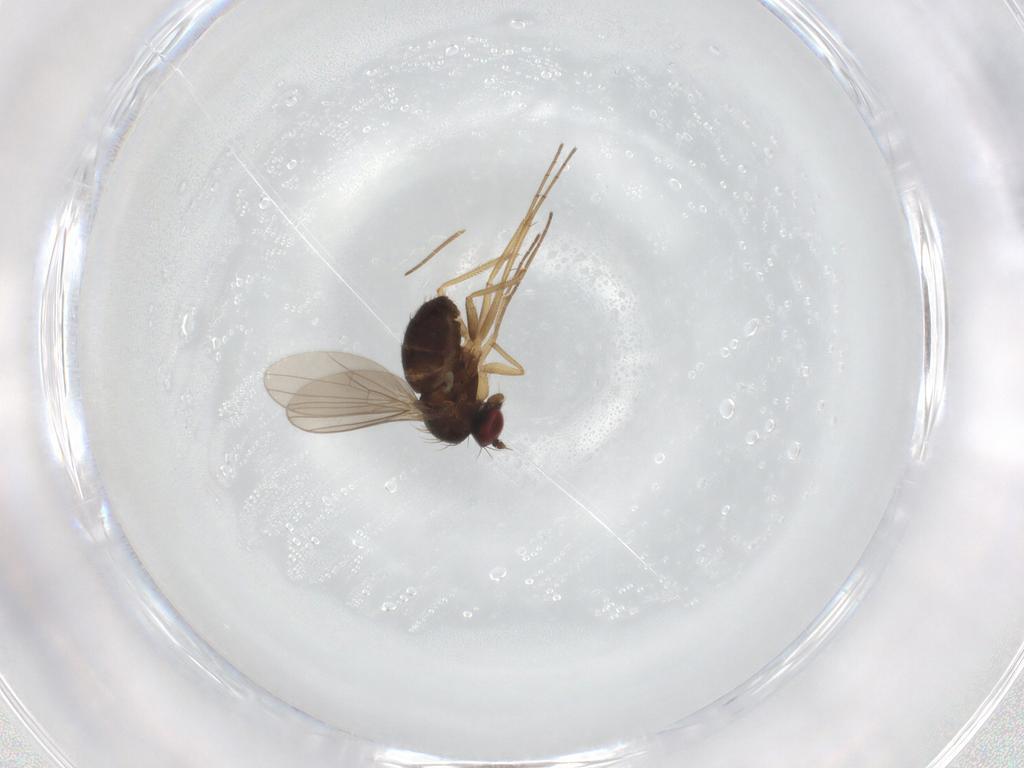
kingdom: Animalia
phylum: Arthropoda
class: Insecta
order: Diptera
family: Dolichopodidae
